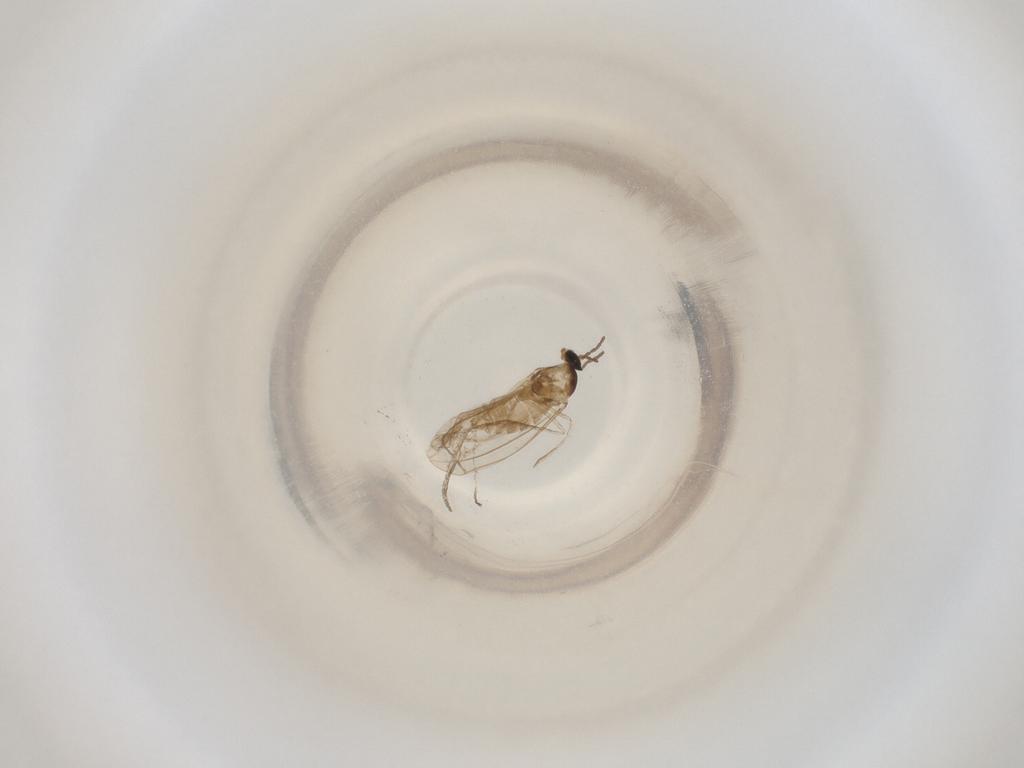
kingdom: Animalia
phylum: Arthropoda
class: Insecta
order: Diptera
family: Cecidomyiidae
